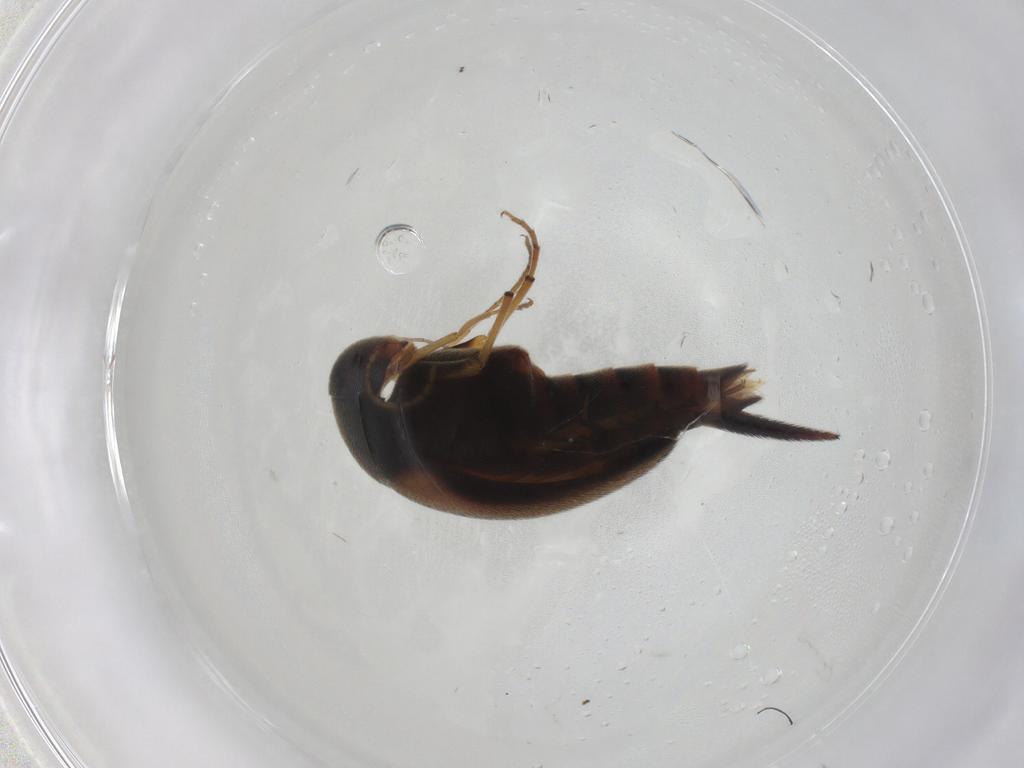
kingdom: Animalia
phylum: Arthropoda
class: Insecta
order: Coleoptera
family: Mordellidae
